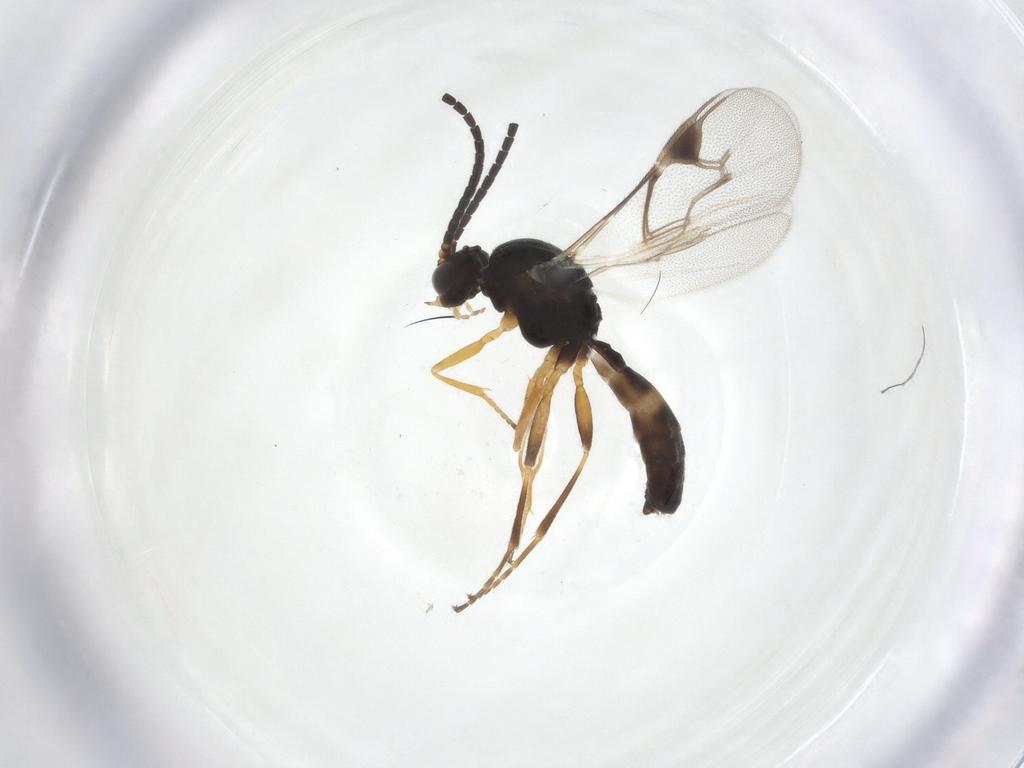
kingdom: Animalia
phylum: Arthropoda
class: Insecta
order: Hymenoptera
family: Braconidae
